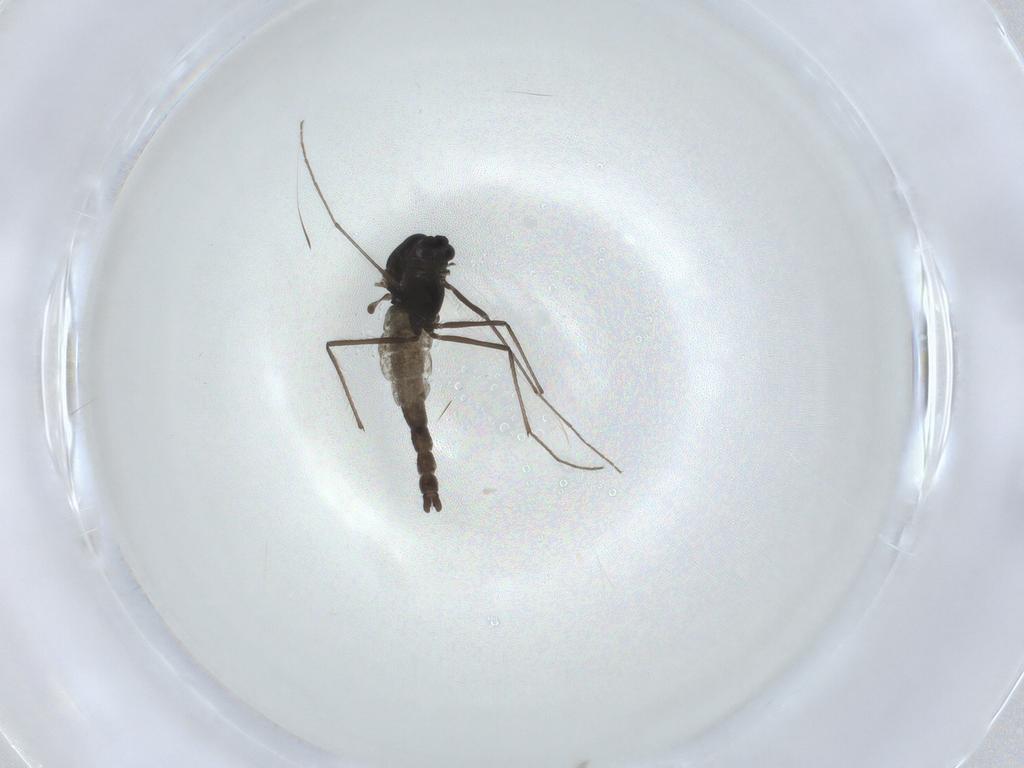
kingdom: Animalia
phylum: Arthropoda
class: Insecta
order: Diptera
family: Chironomidae
